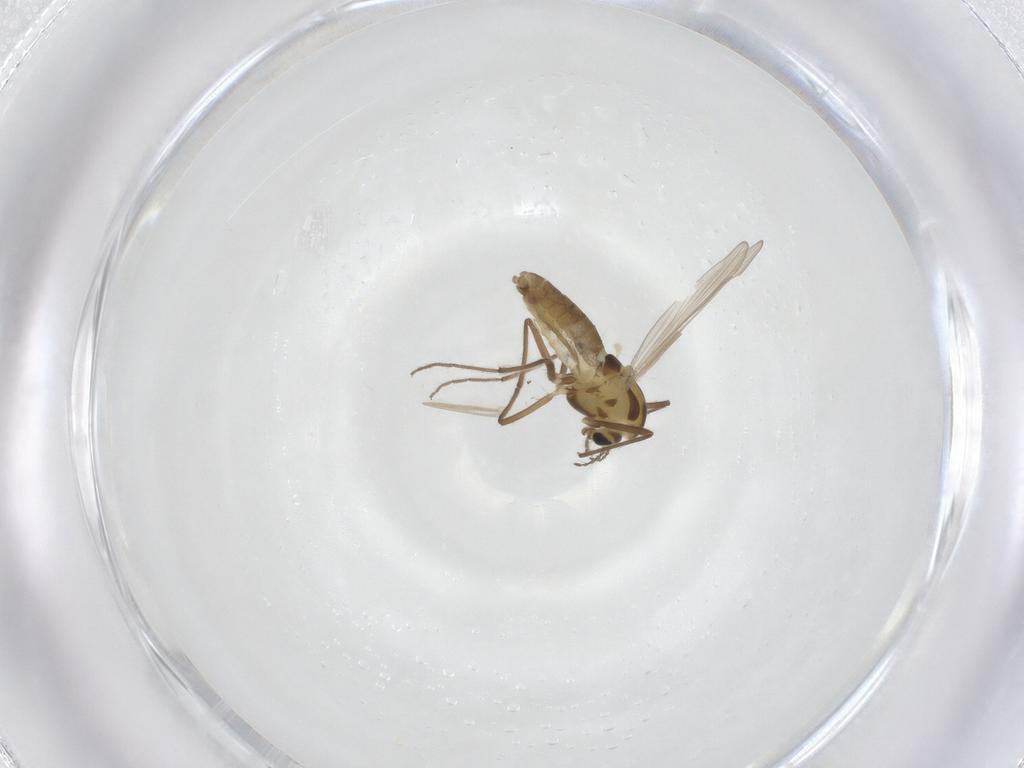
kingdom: Animalia
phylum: Arthropoda
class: Insecta
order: Diptera
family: Chironomidae
